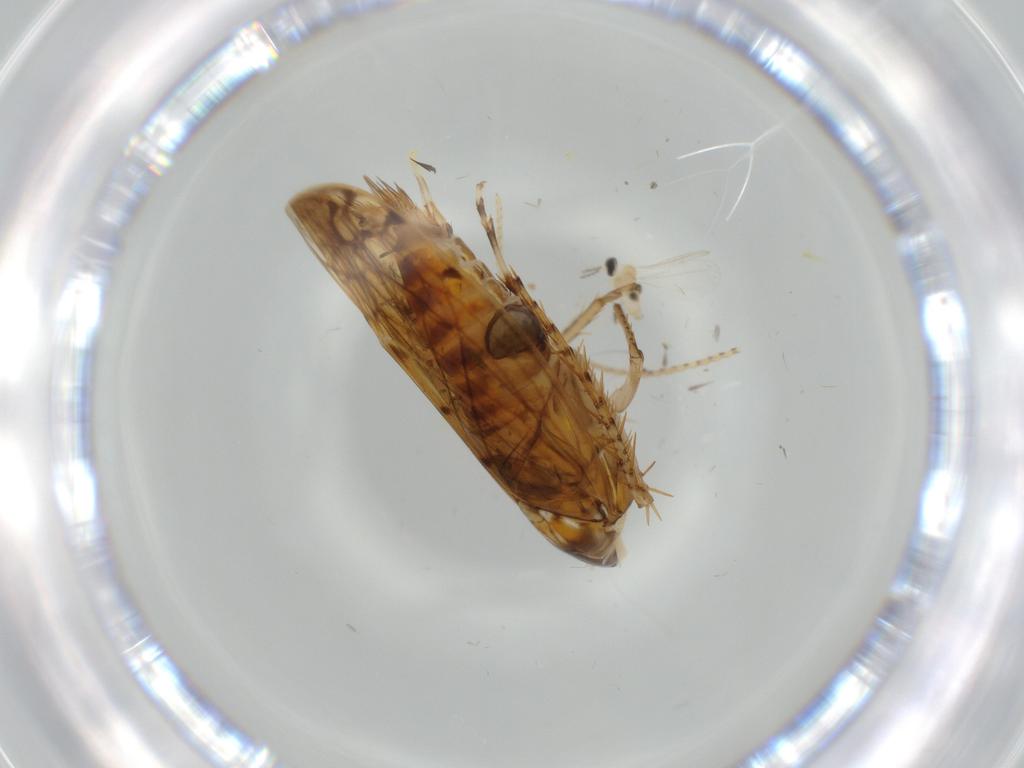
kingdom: Animalia
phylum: Arthropoda
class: Insecta
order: Hemiptera
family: Cicadellidae
